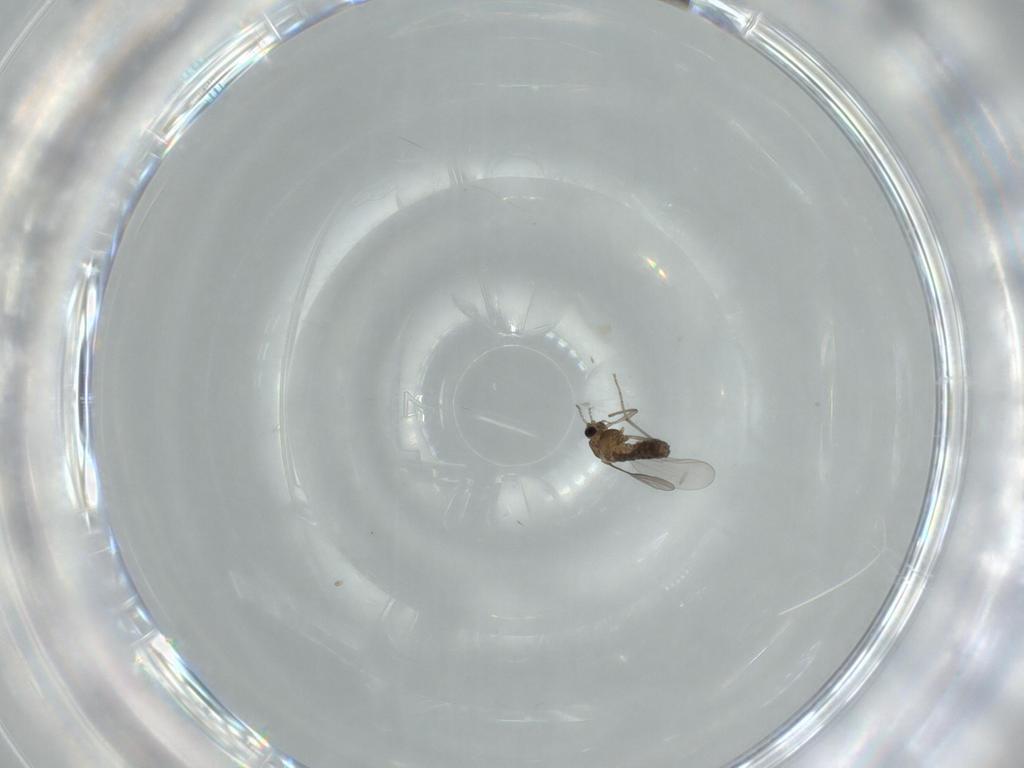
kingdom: Animalia
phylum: Arthropoda
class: Insecta
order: Diptera
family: Chironomidae
